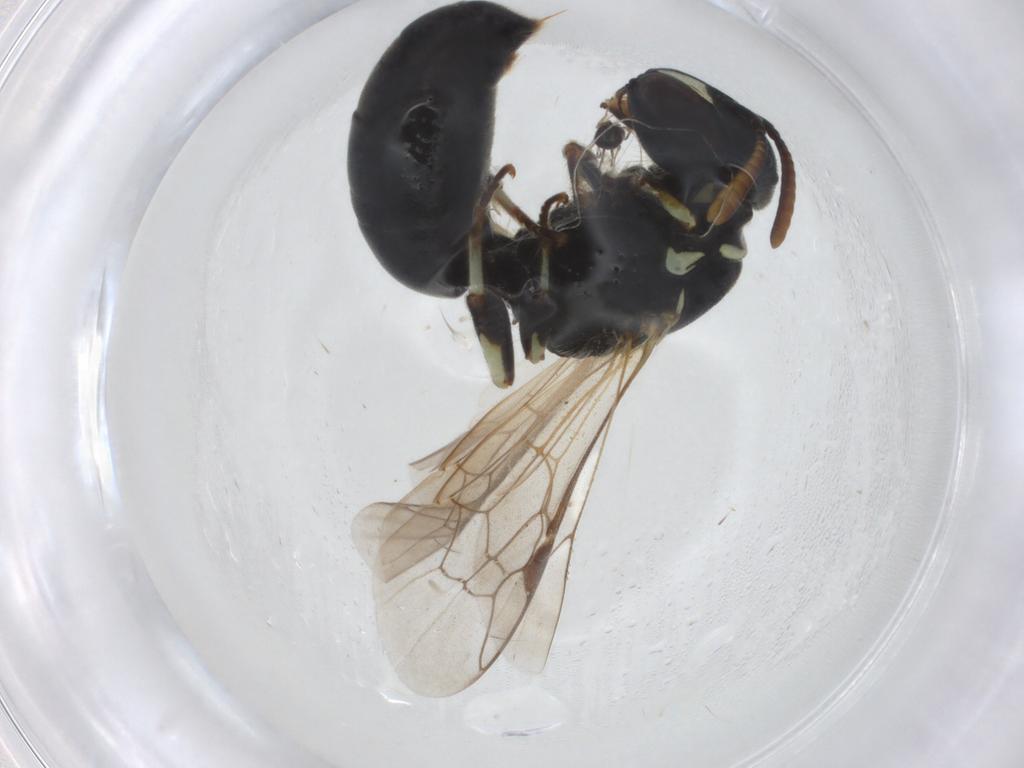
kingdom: Animalia
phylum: Arthropoda
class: Insecta
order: Hymenoptera
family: Colletidae
